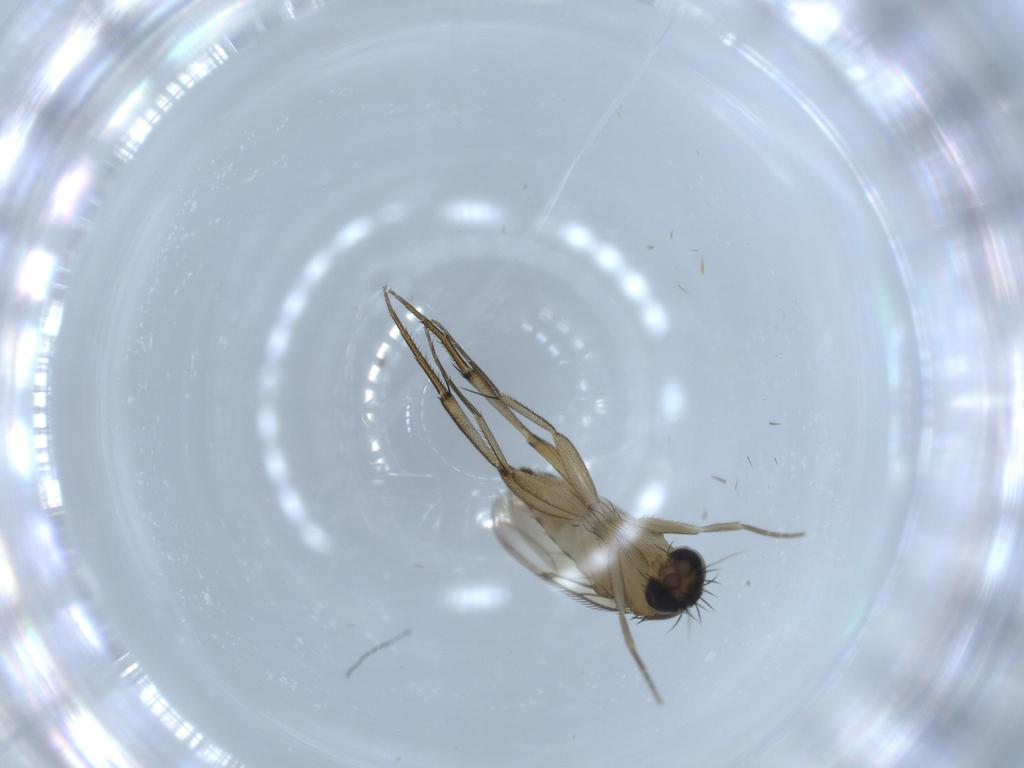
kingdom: Animalia
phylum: Arthropoda
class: Insecta
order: Diptera
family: Phoridae
